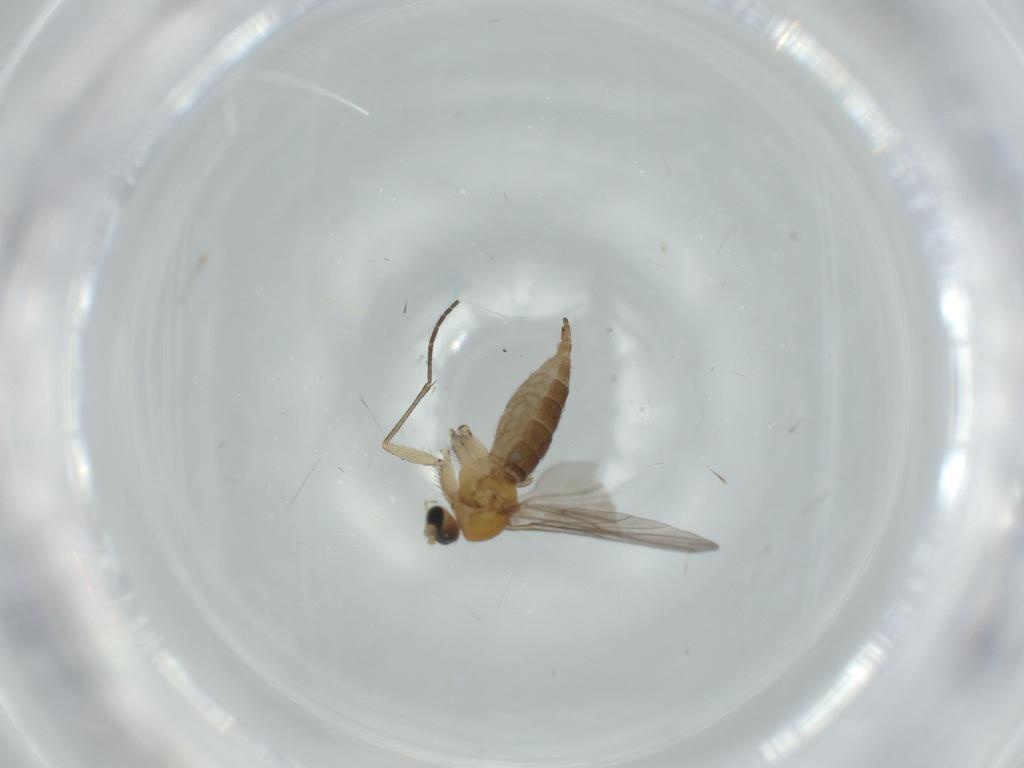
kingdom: Animalia
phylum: Arthropoda
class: Insecta
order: Diptera
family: Sciaridae
